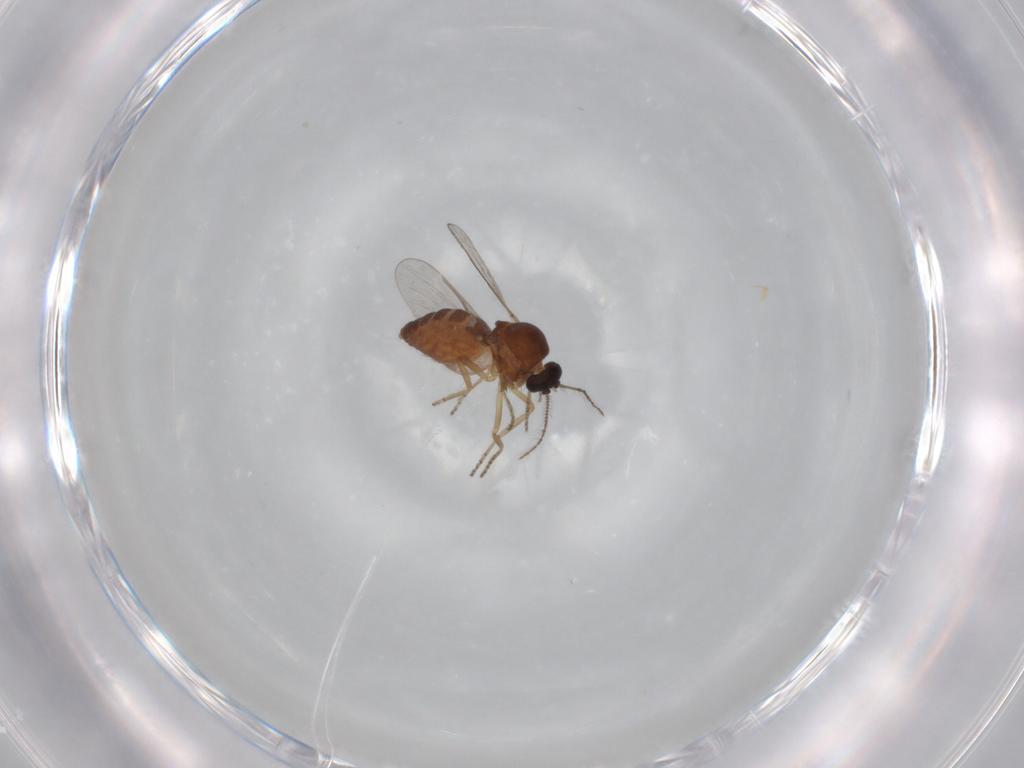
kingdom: Animalia
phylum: Arthropoda
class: Insecta
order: Diptera
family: Ceratopogonidae
